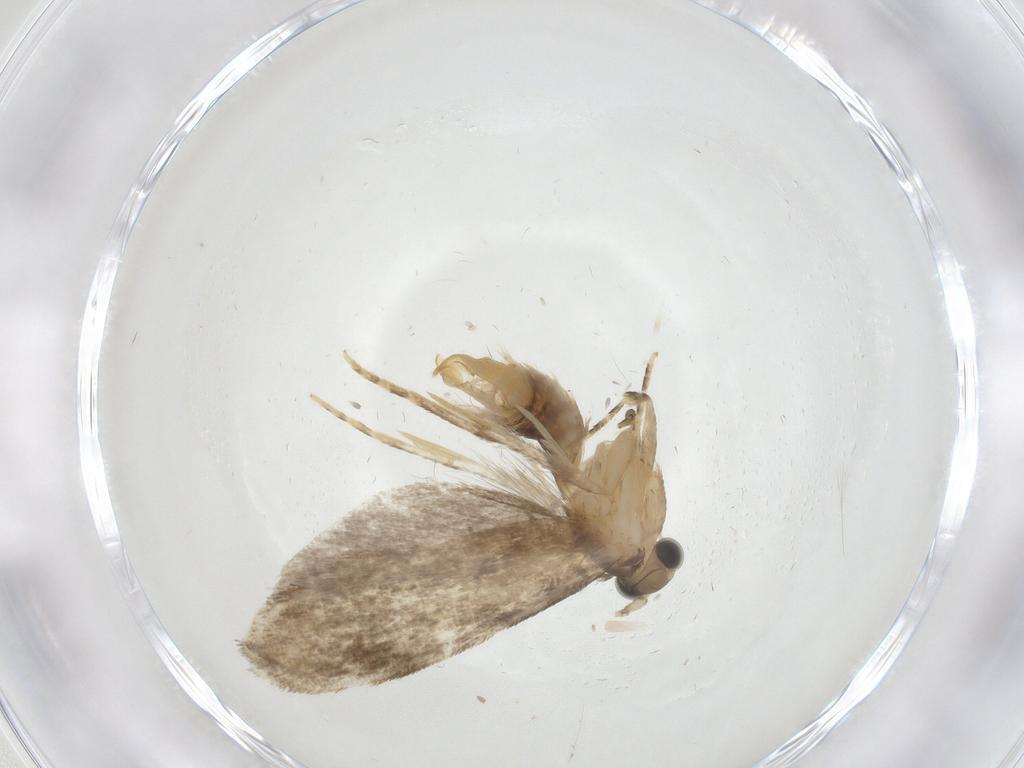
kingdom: Animalia
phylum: Arthropoda
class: Insecta
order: Lepidoptera
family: Tineidae
